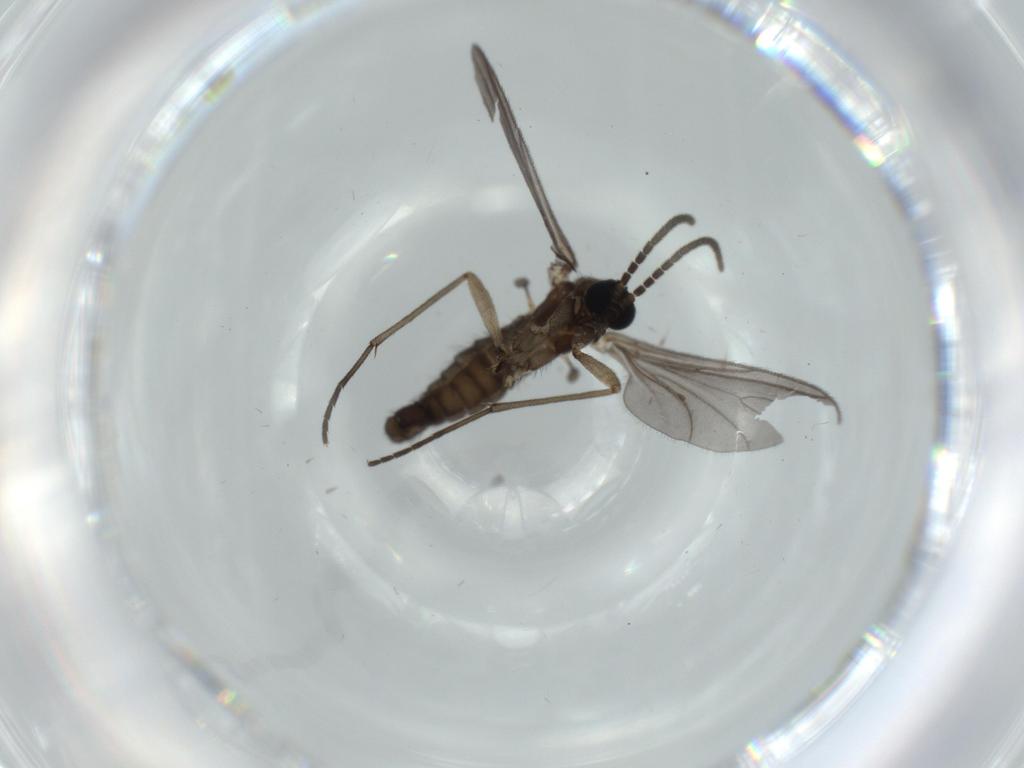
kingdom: Animalia
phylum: Arthropoda
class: Insecta
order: Diptera
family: Sciaridae
